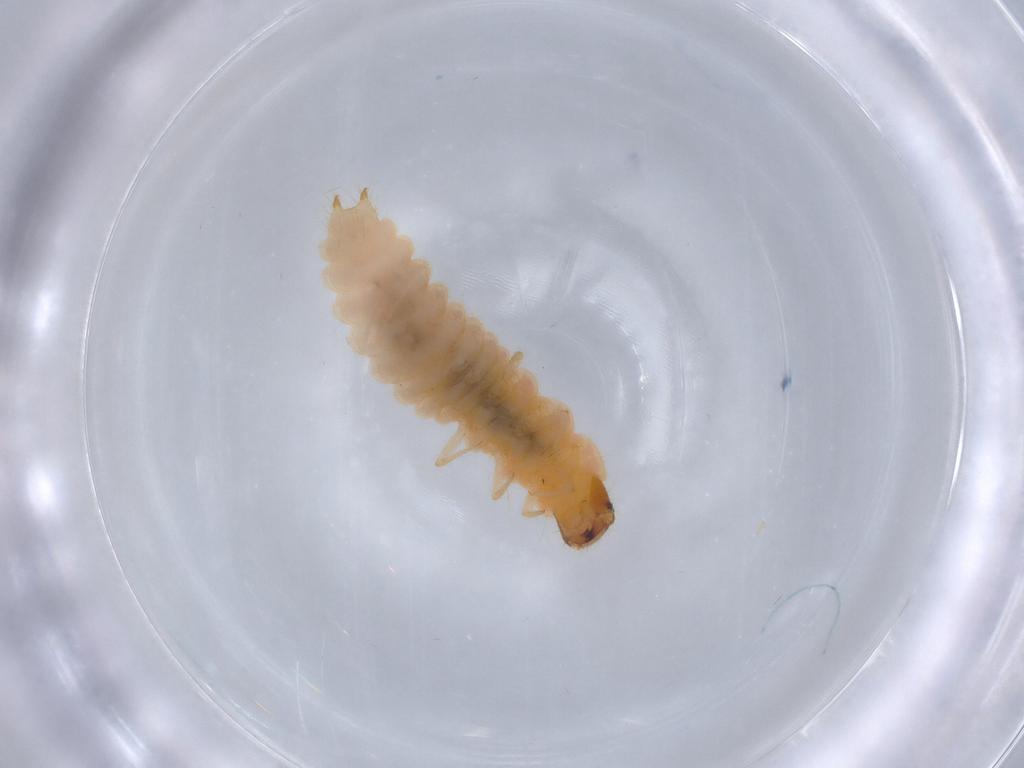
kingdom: Animalia
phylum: Arthropoda
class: Insecta
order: Coleoptera
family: Melyridae
